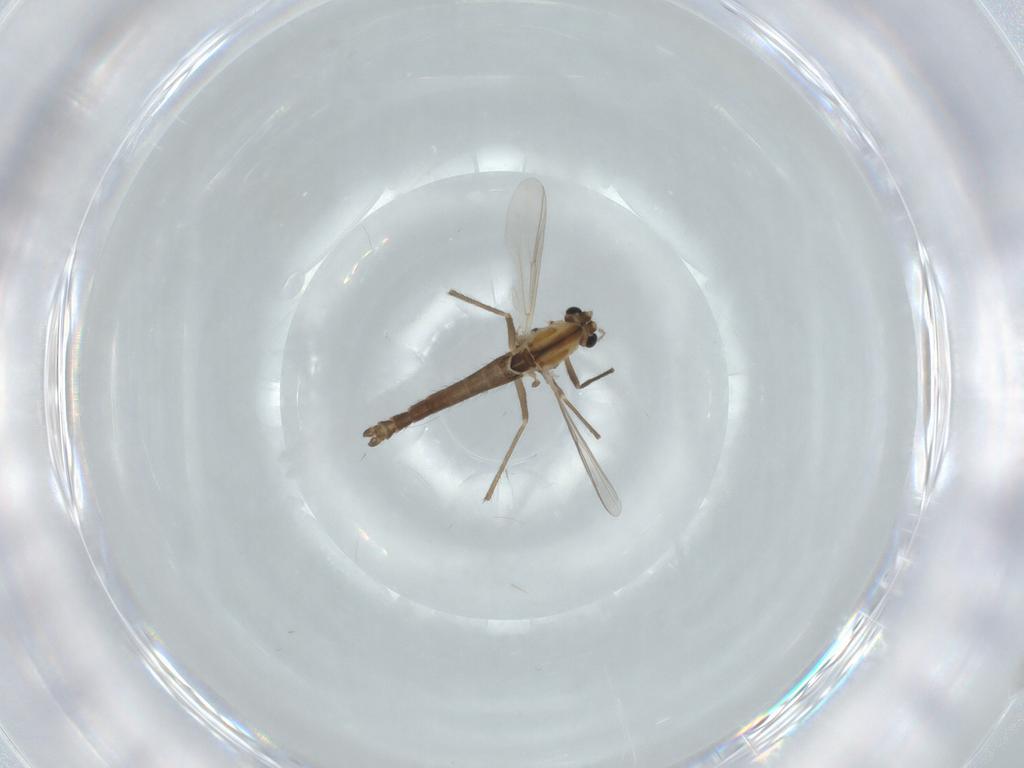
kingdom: Animalia
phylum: Arthropoda
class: Insecta
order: Diptera
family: Chironomidae
